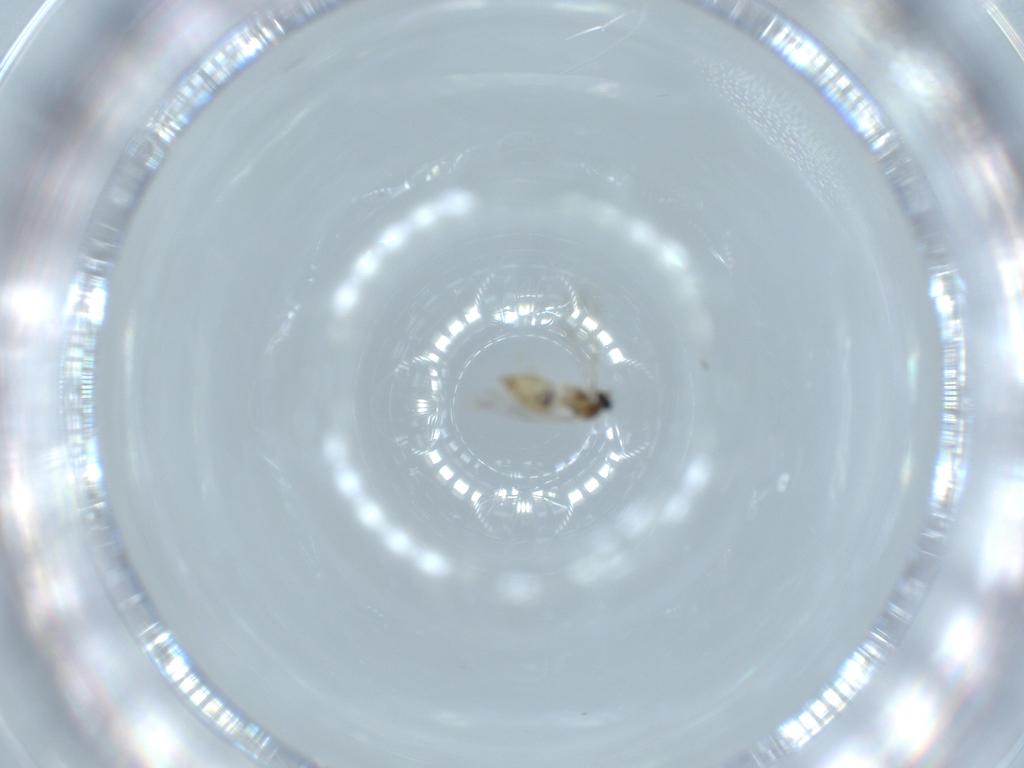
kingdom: Animalia
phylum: Arthropoda
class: Insecta
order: Diptera
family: Cecidomyiidae
